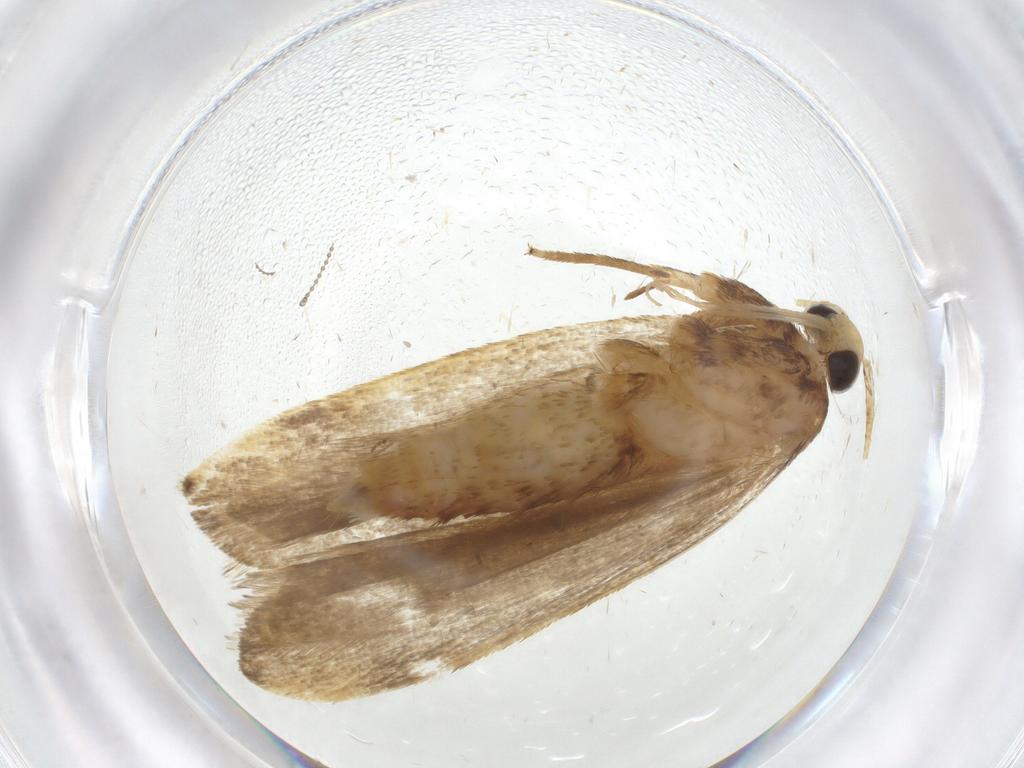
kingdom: Animalia
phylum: Arthropoda
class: Insecta
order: Lepidoptera
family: Autostichidae
